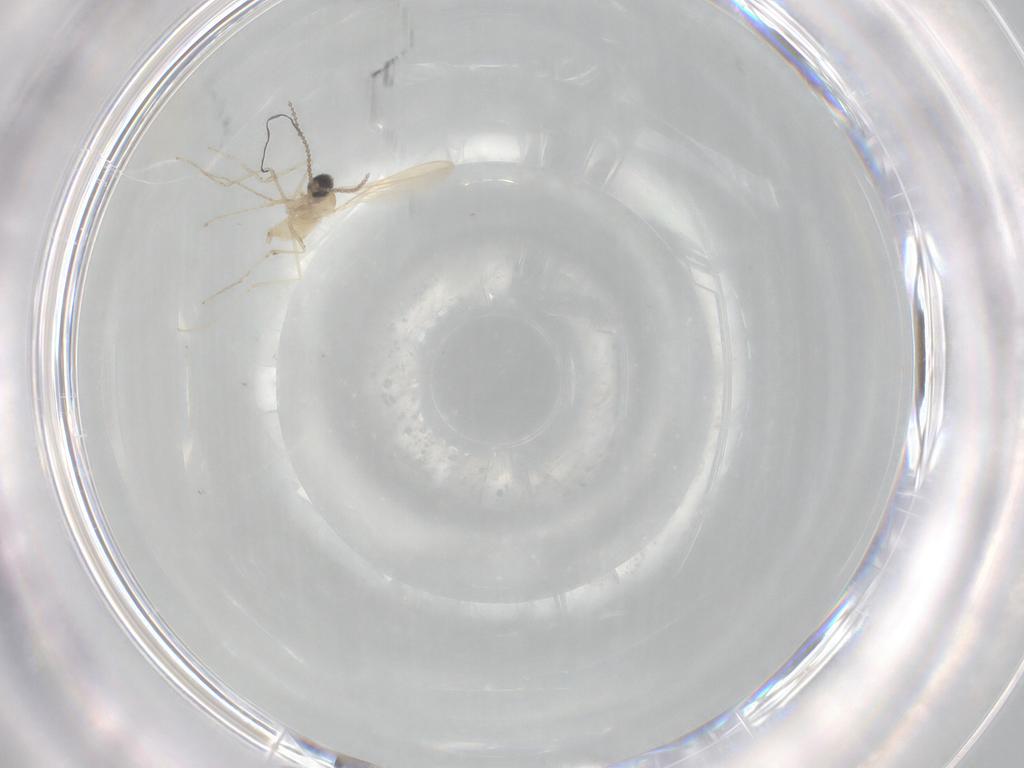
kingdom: Animalia
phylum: Arthropoda
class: Insecta
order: Diptera
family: Cecidomyiidae
